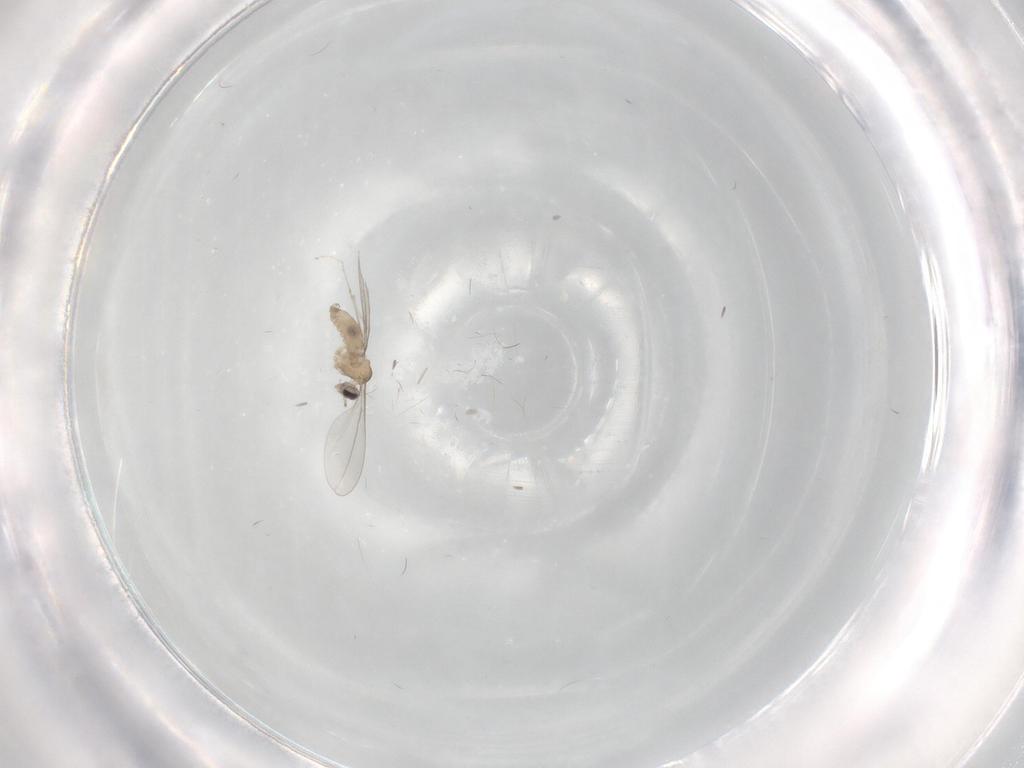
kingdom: Animalia
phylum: Arthropoda
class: Insecta
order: Diptera
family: Cecidomyiidae
